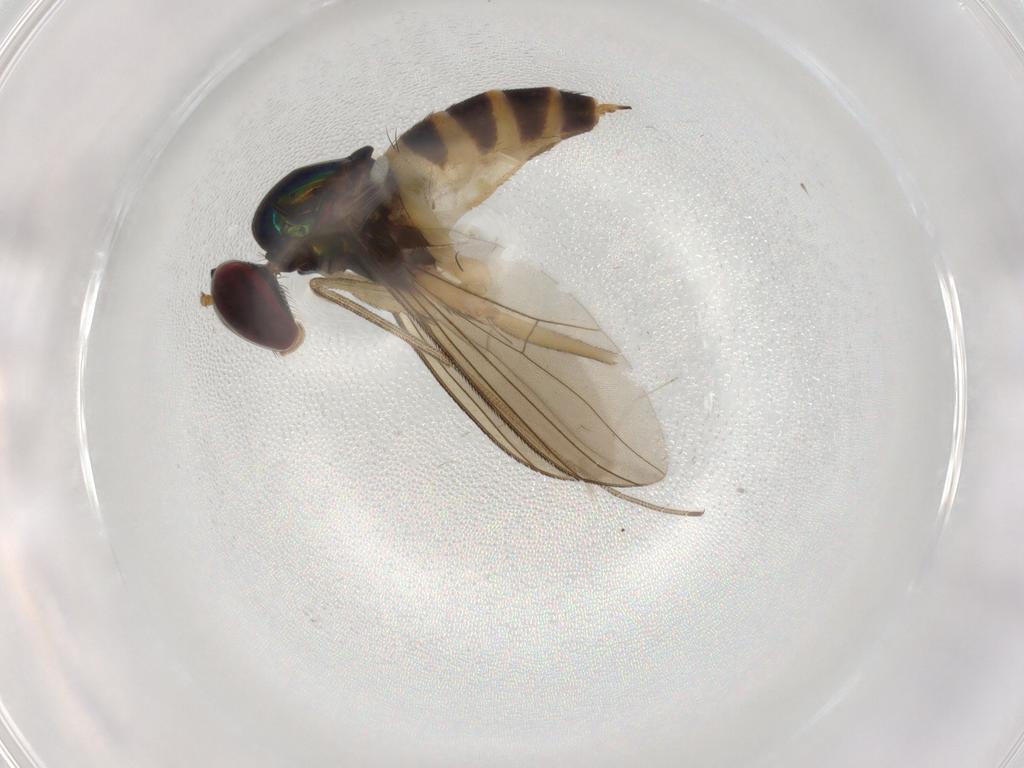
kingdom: Animalia
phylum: Arthropoda
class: Insecta
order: Diptera
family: Dolichopodidae
